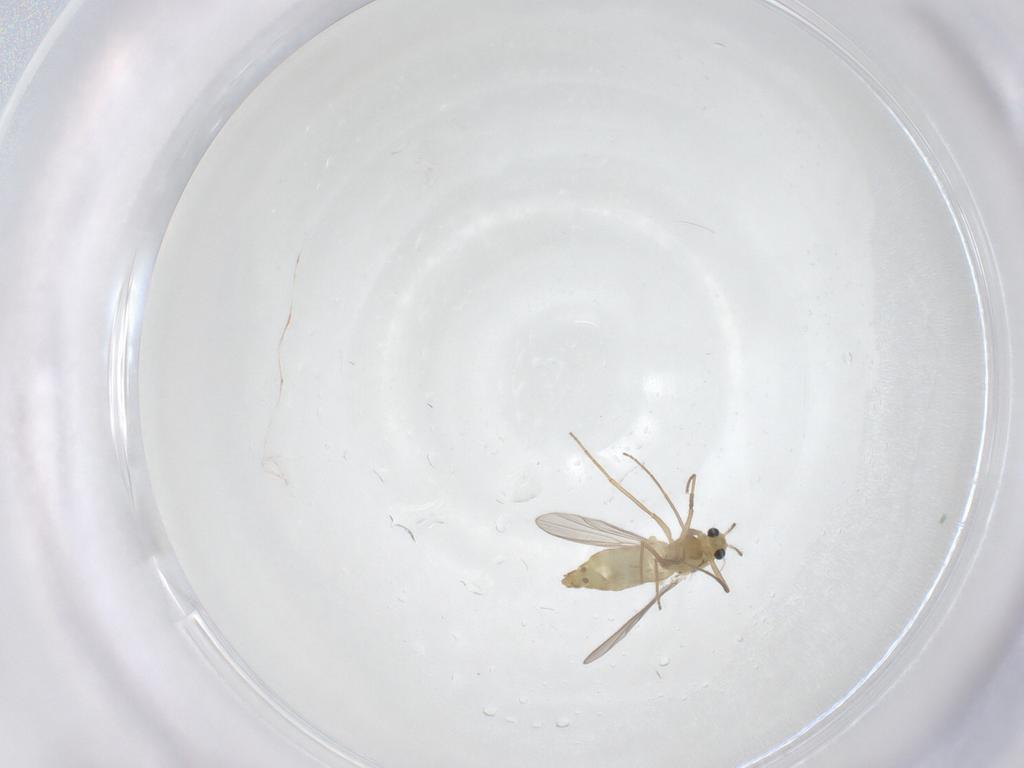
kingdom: Animalia
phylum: Arthropoda
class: Insecta
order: Diptera
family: Chironomidae
